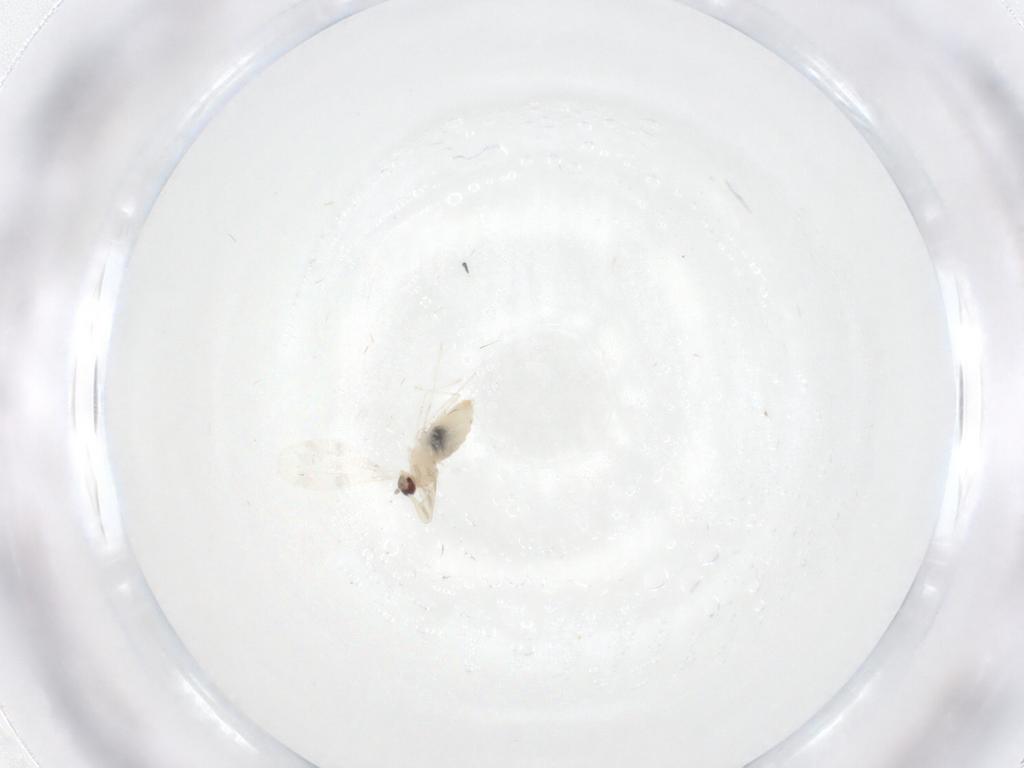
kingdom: Animalia
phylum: Arthropoda
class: Insecta
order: Diptera
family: Cecidomyiidae
